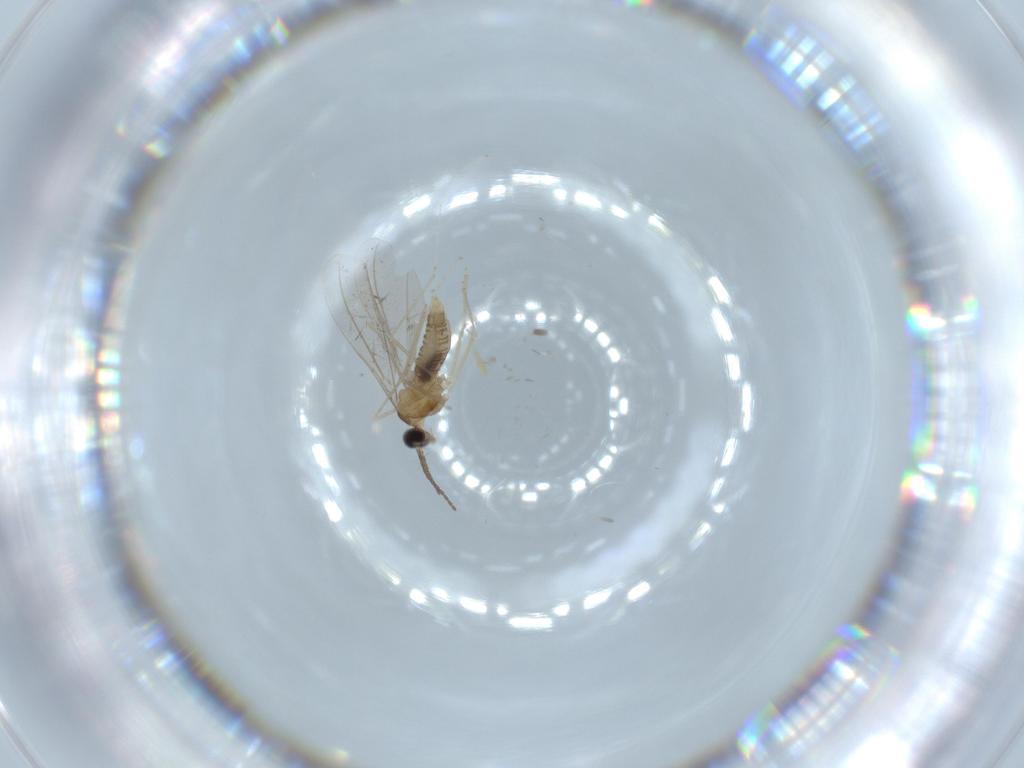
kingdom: Animalia
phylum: Arthropoda
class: Insecta
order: Diptera
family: Cecidomyiidae
